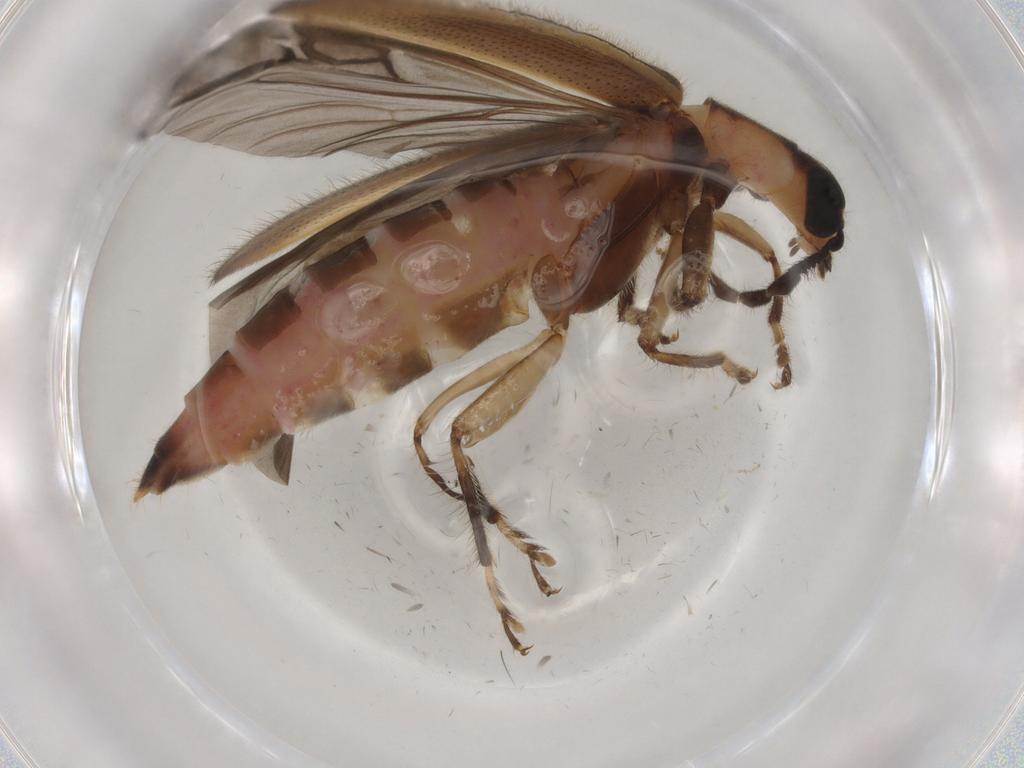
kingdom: Animalia
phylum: Arthropoda
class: Insecta
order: Coleoptera
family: Cleridae
